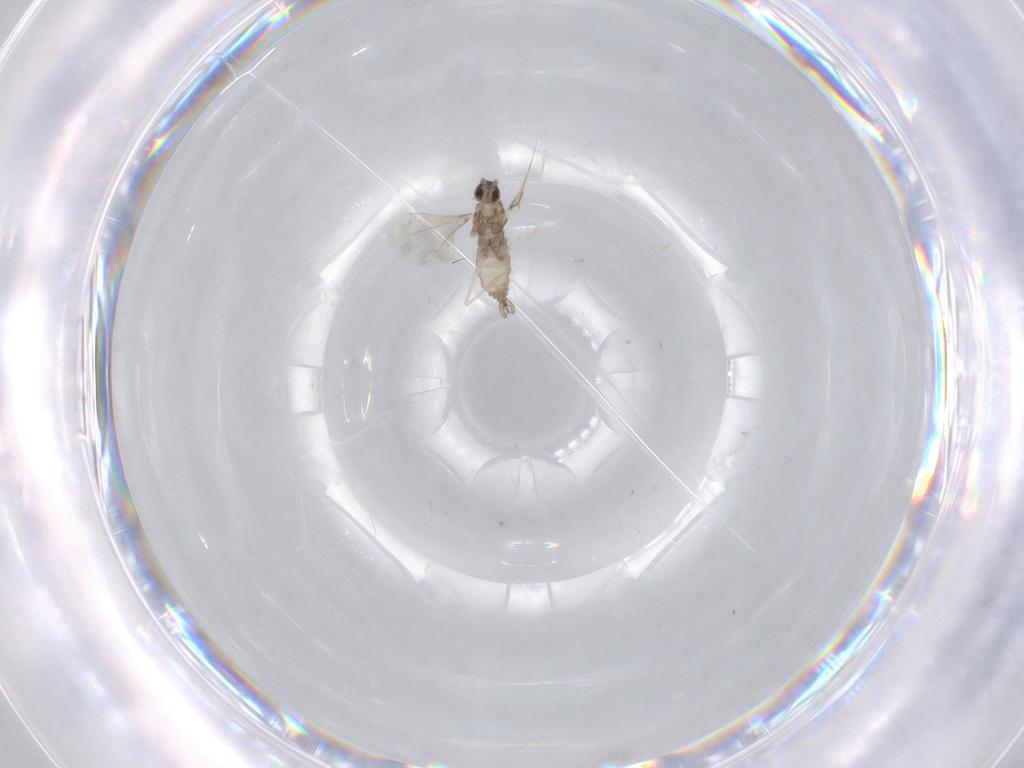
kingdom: Animalia
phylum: Arthropoda
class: Insecta
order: Diptera
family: Cecidomyiidae
